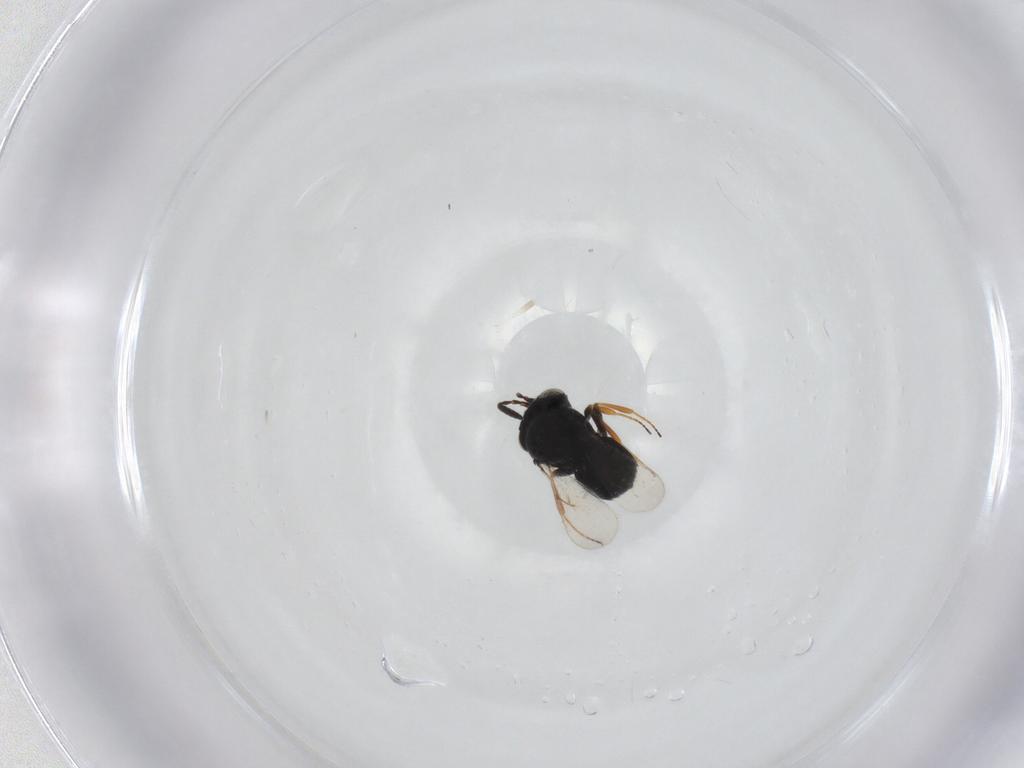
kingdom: Animalia
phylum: Arthropoda
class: Insecta
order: Hymenoptera
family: Scelionidae
